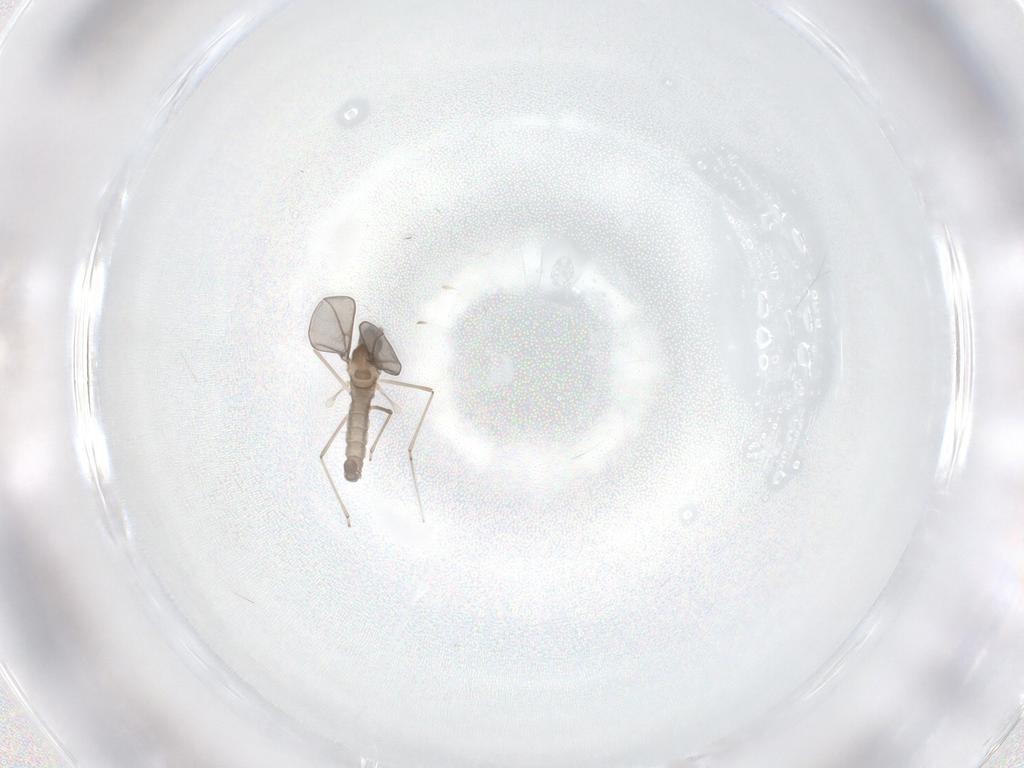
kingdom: Animalia
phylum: Arthropoda
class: Insecta
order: Diptera
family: Cecidomyiidae
